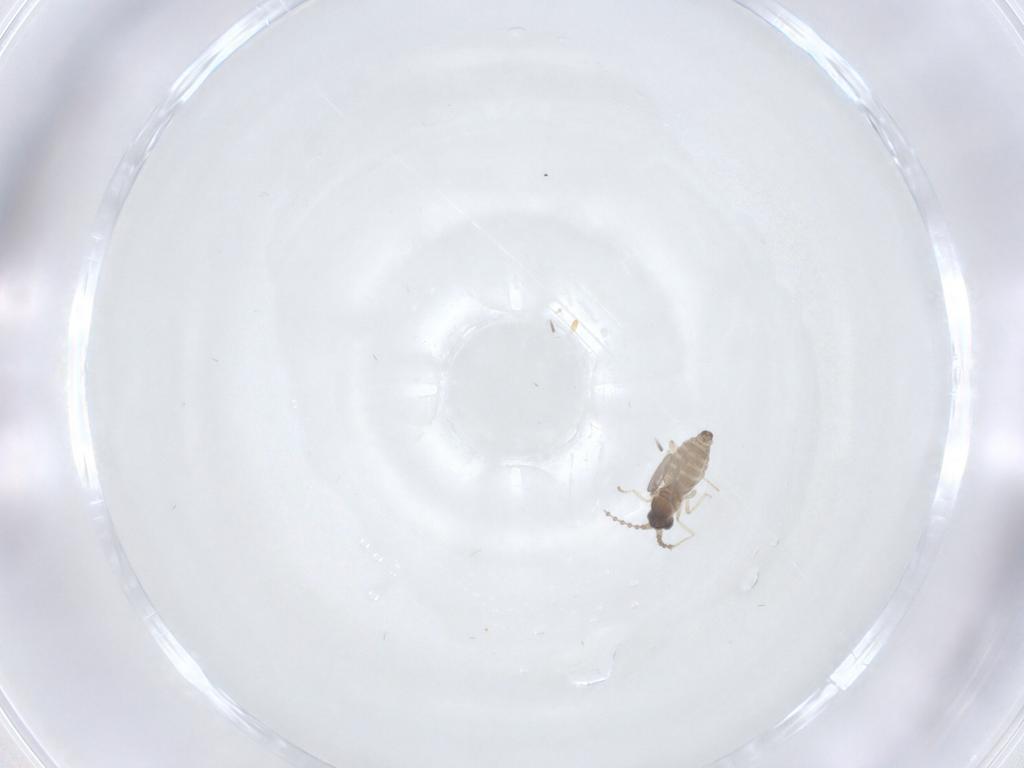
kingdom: Animalia
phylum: Arthropoda
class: Insecta
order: Diptera
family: Cecidomyiidae
